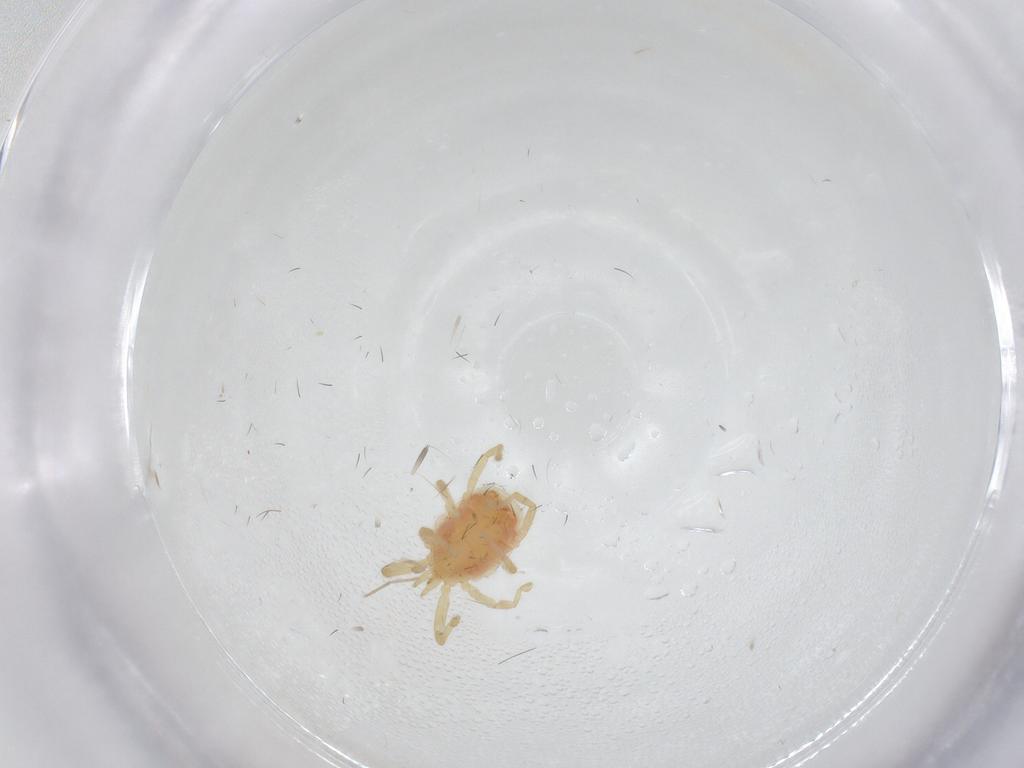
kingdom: Animalia
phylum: Arthropoda
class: Arachnida
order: Trombidiformes
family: Erythraeidae
